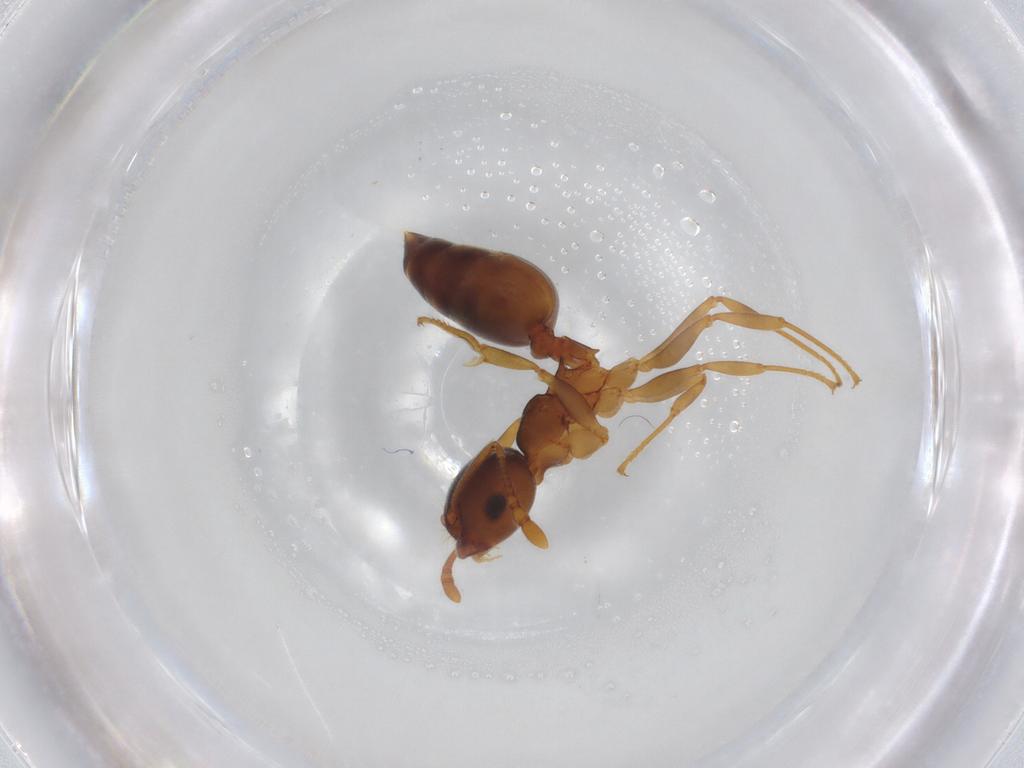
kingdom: Animalia
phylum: Arthropoda
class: Insecta
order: Hymenoptera
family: Formicidae
